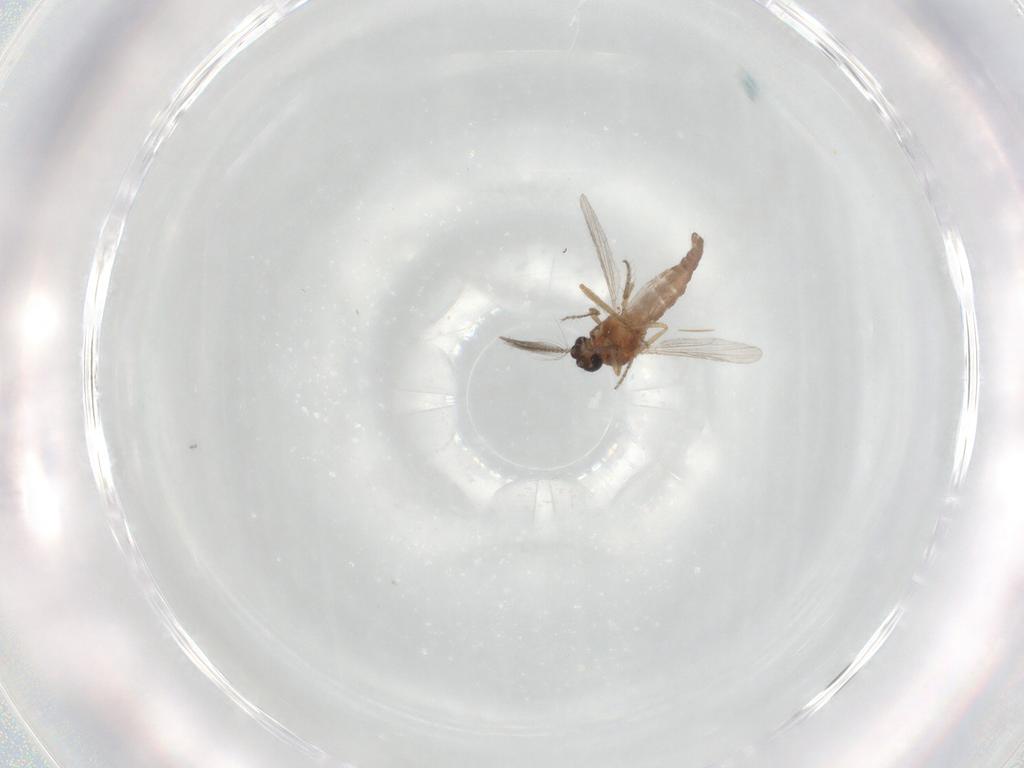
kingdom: Animalia
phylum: Arthropoda
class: Insecta
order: Diptera
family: Ceratopogonidae
